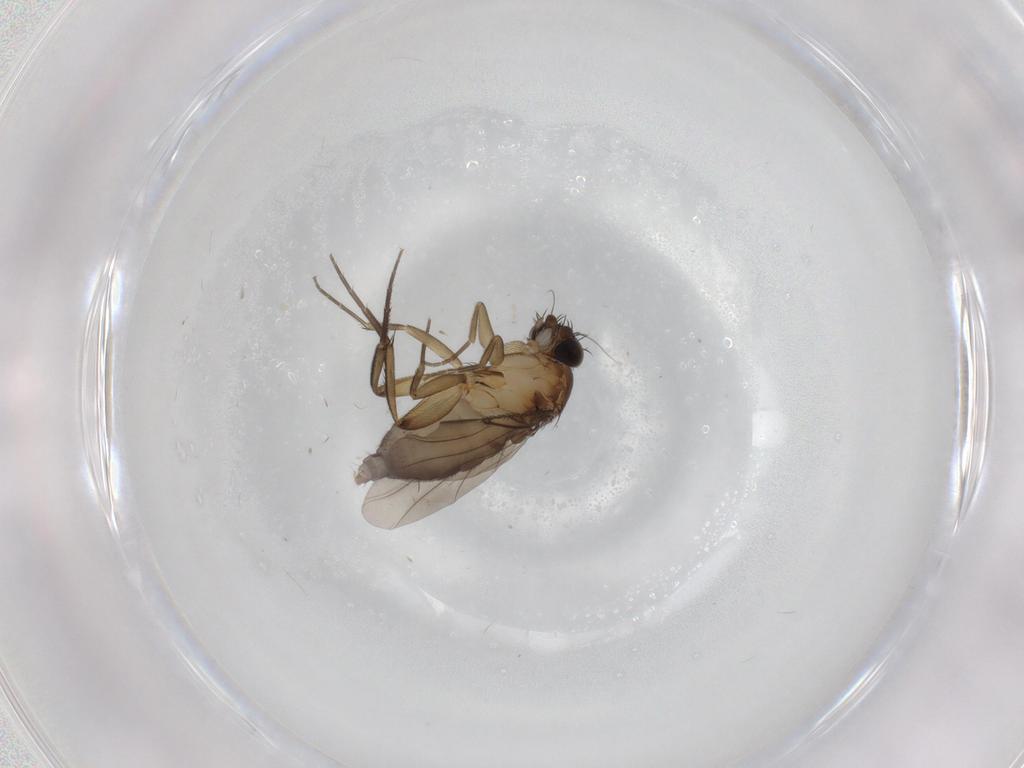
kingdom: Animalia
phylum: Arthropoda
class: Insecta
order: Diptera
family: Phoridae
